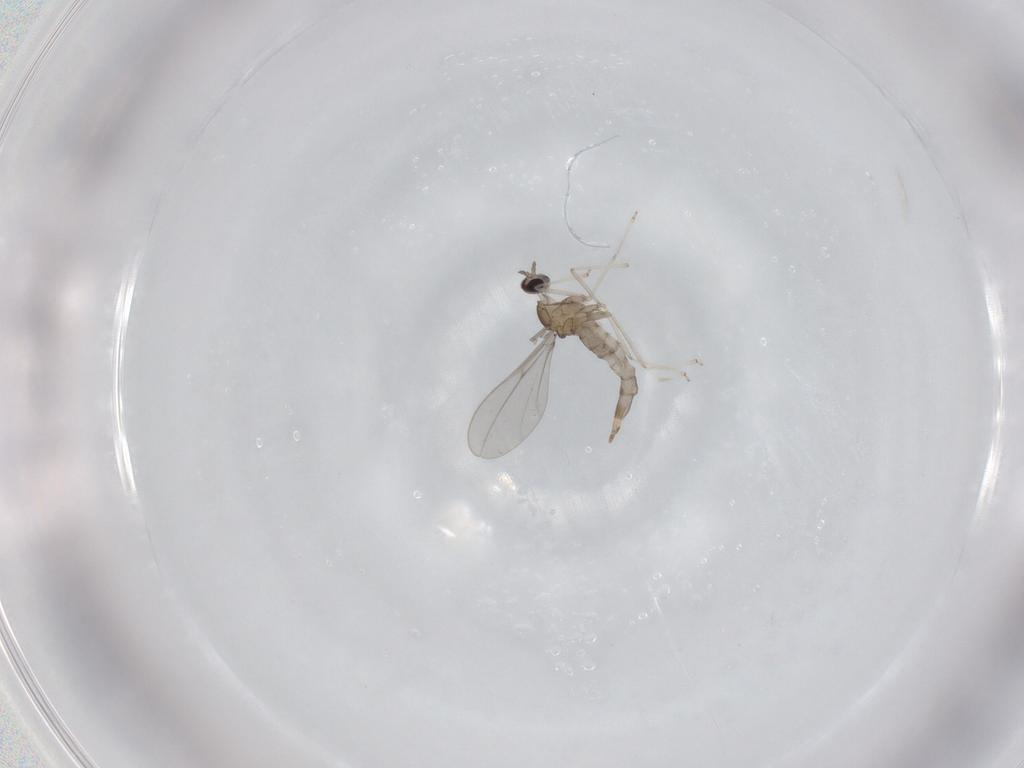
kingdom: Animalia
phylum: Arthropoda
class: Insecta
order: Diptera
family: Cecidomyiidae
